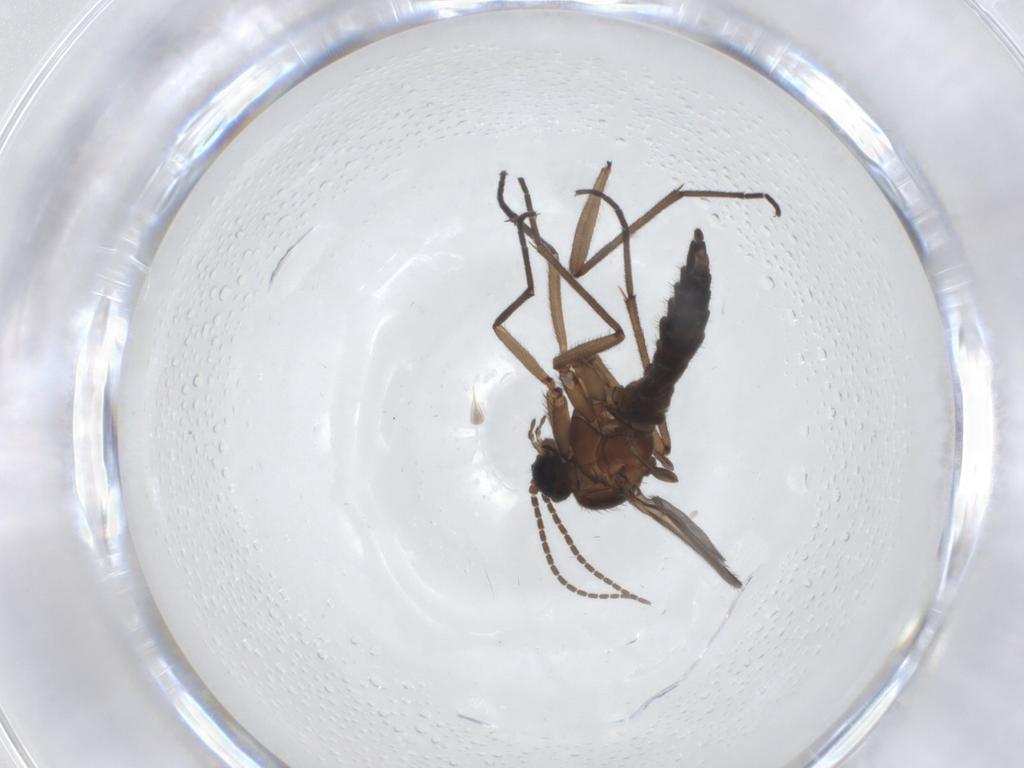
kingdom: Animalia
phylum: Arthropoda
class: Insecta
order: Diptera
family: Sciaridae
